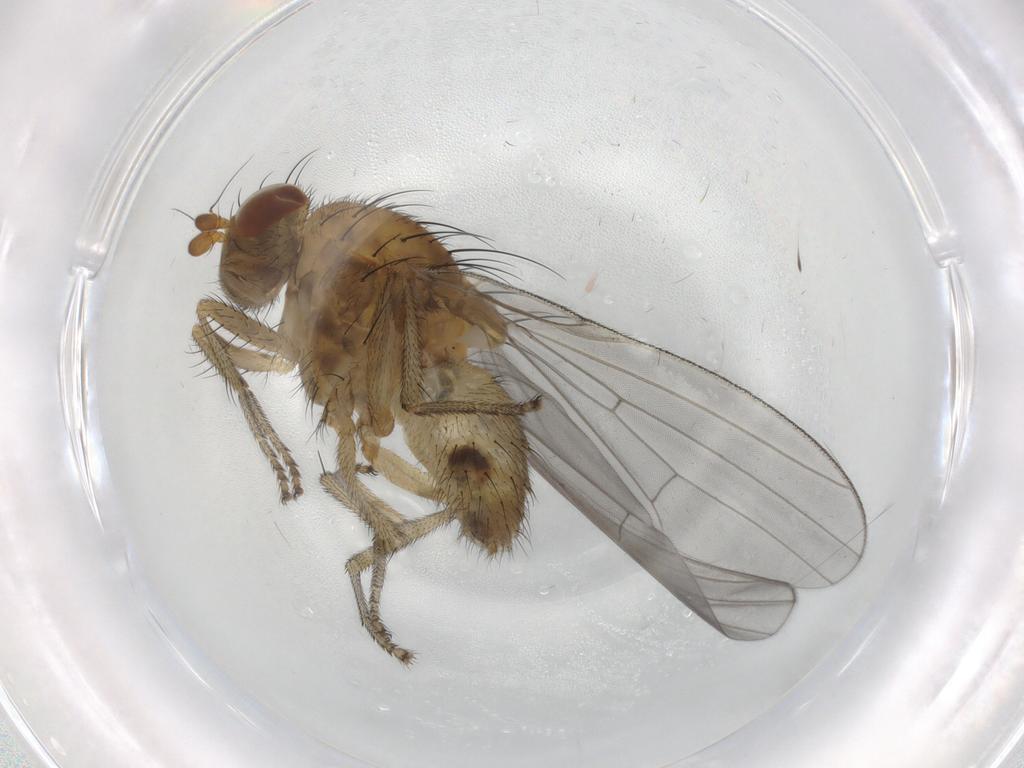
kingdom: Animalia
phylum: Arthropoda
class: Insecta
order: Diptera
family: Lauxaniidae
